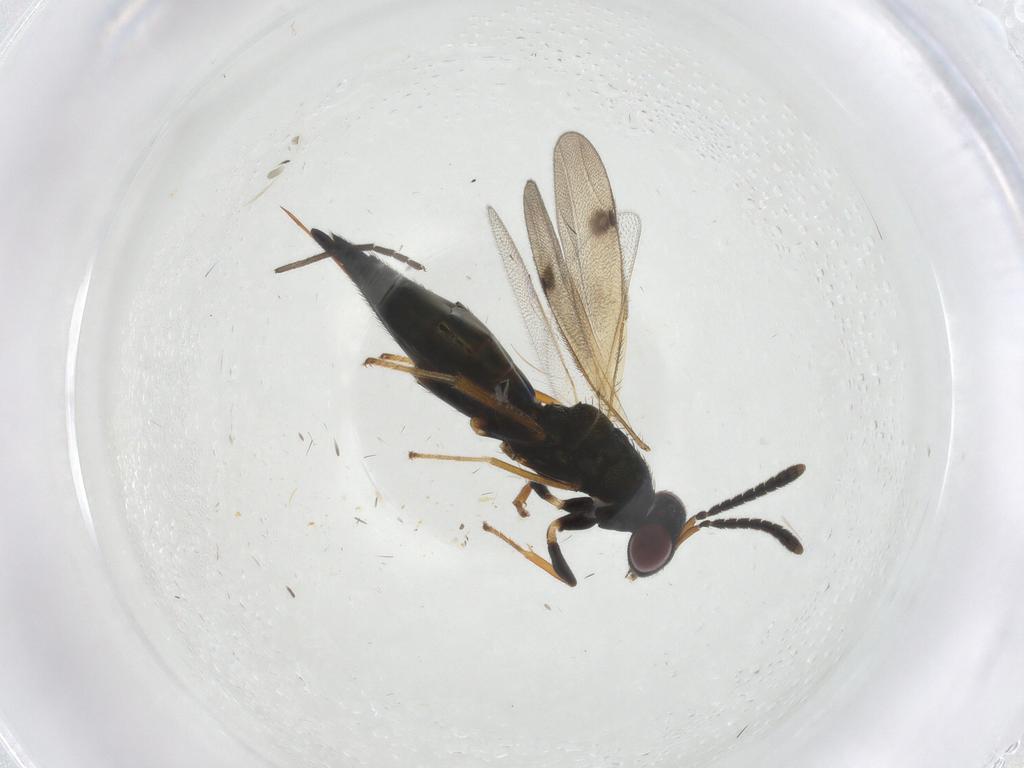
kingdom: Animalia
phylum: Arthropoda
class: Insecta
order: Hymenoptera
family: Pteromalidae
